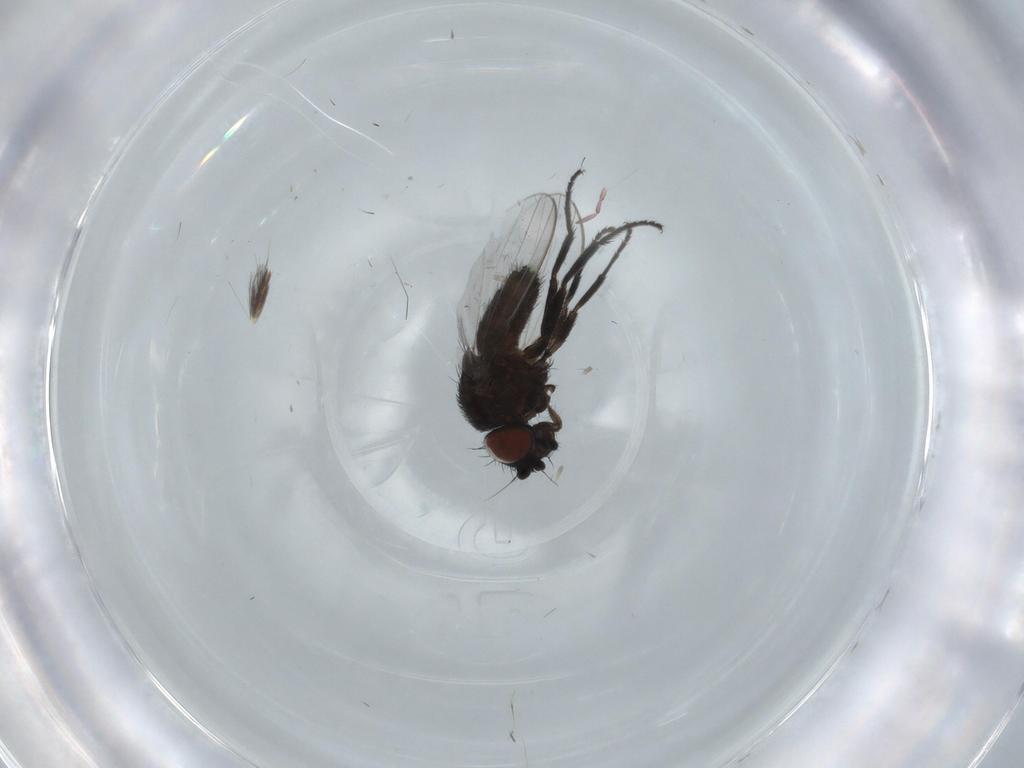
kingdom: Animalia
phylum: Arthropoda
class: Insecta
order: Diptera
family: Milichiidae
